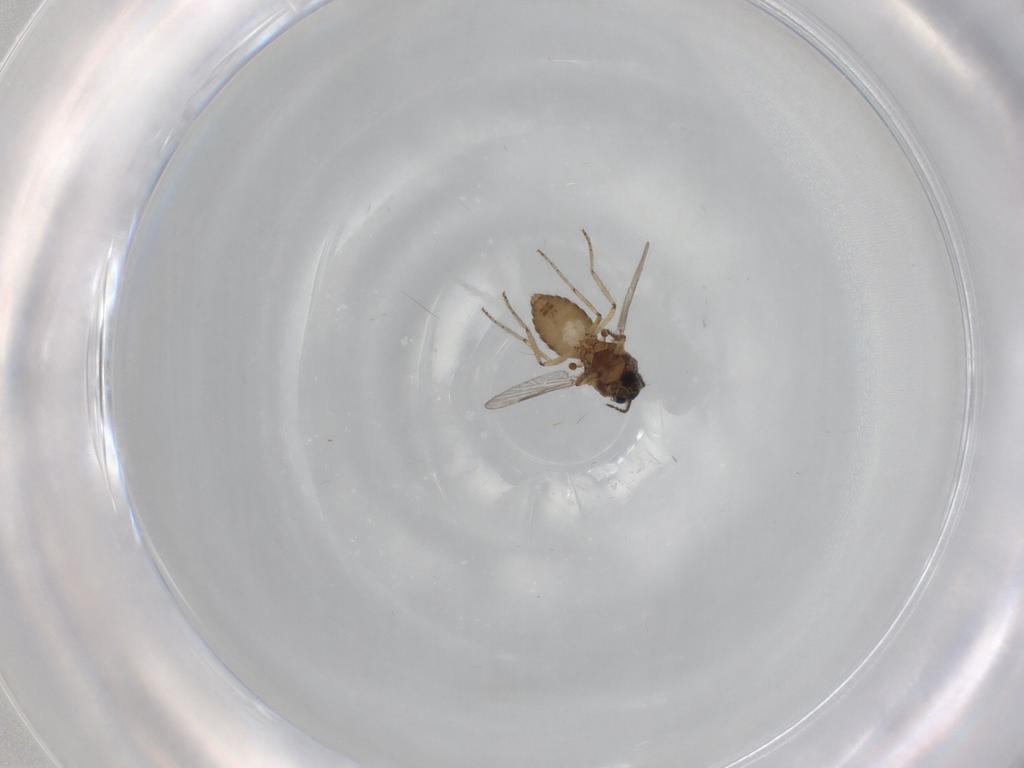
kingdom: Animalia
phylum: Arthropoda
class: Insecta
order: Diptera
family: Ceratopogonidae
